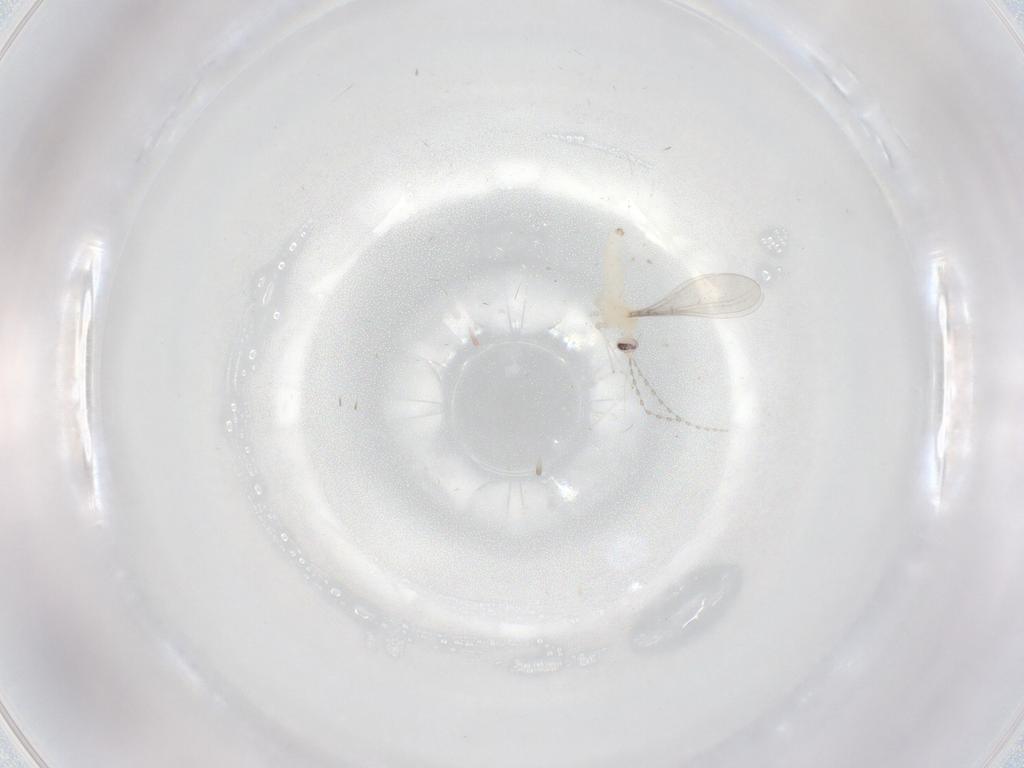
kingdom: Animalia
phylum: Arthropoda
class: Insecta
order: Diptera
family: Cecidomyiidae
